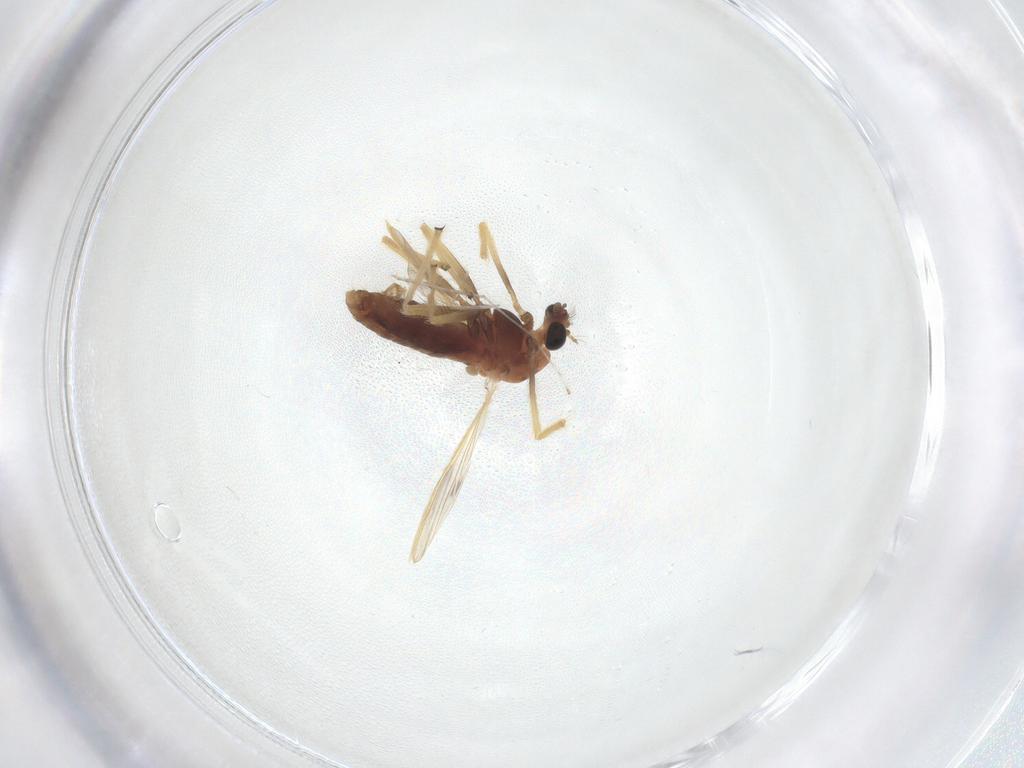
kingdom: Animalia
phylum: Arthropoda
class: Insecta
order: Diptera
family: Chironomidae
